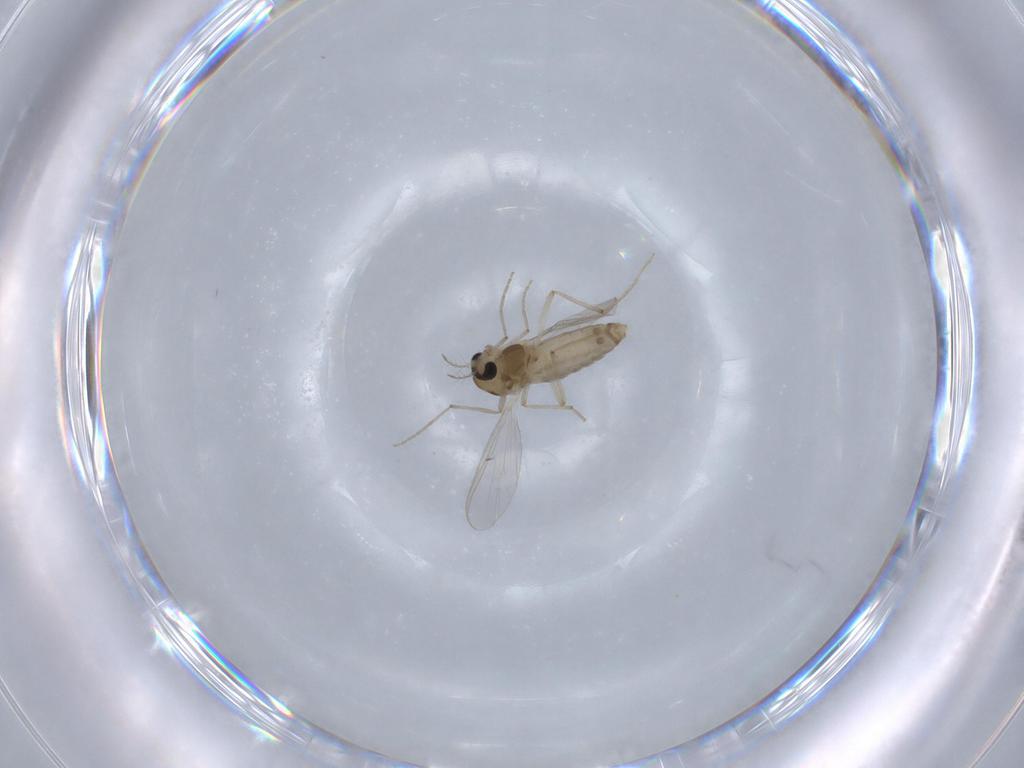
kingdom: Animalia
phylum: Arthropoda
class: Insecta
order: Diptera
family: Chironomidae
